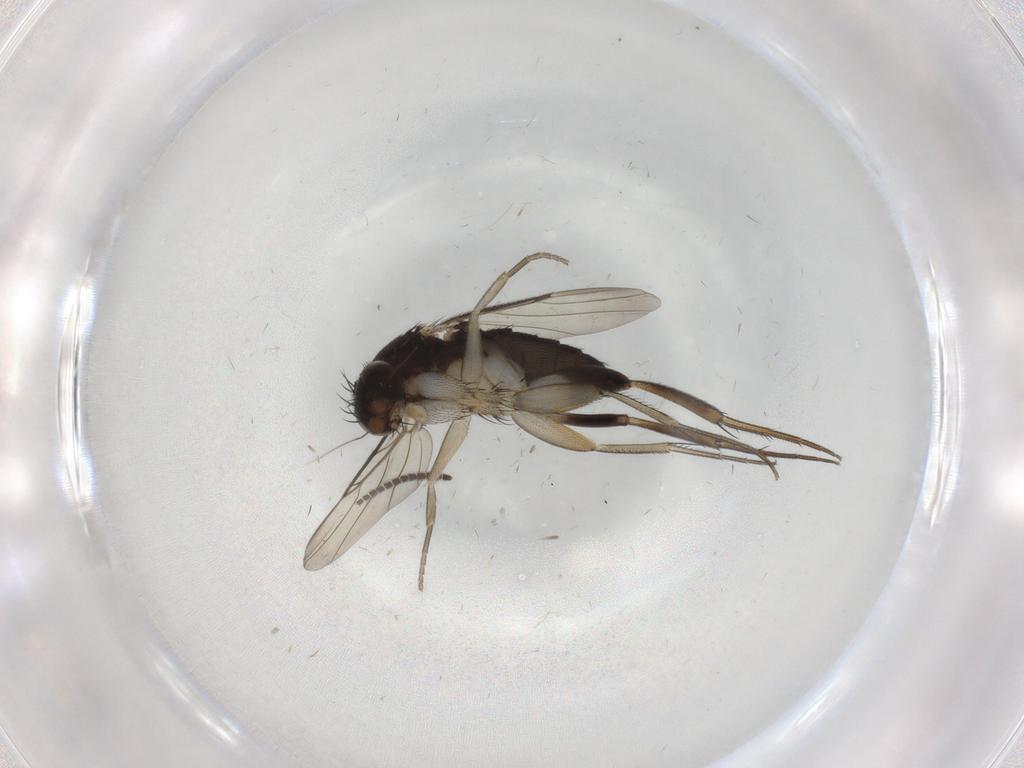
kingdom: Animalia
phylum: Arthropoda
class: Insecta
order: Diptera
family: Phoridae
